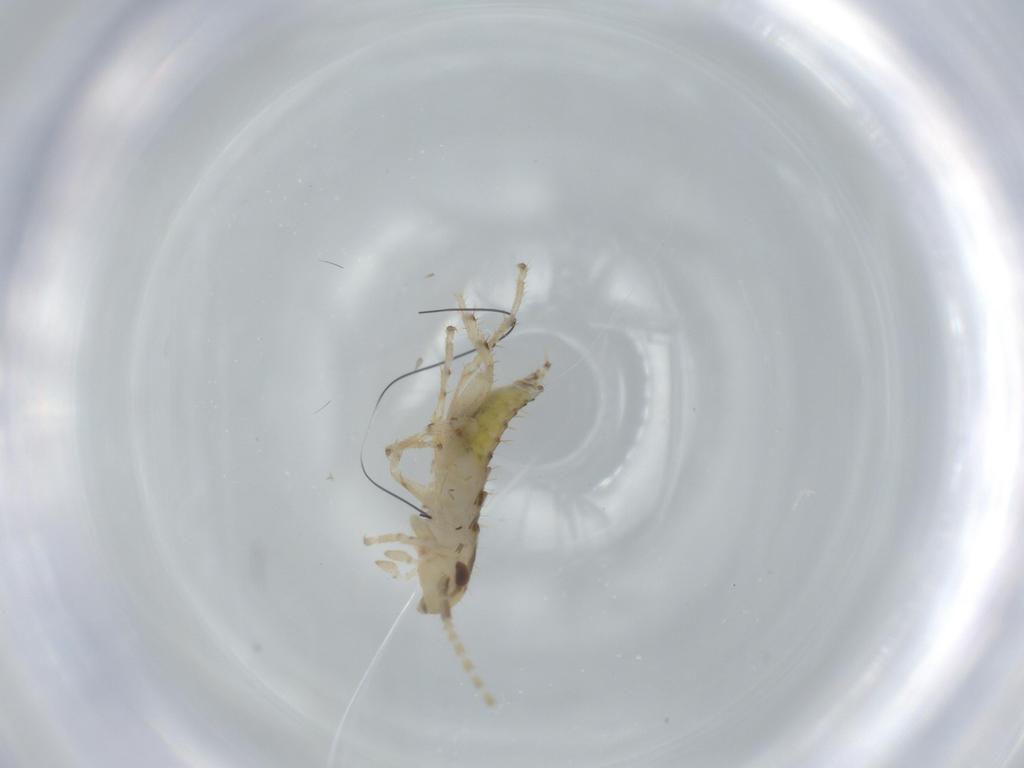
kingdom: Animalia
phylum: Arthropoda
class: Insecta
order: Blattodea
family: Ectobiidae
